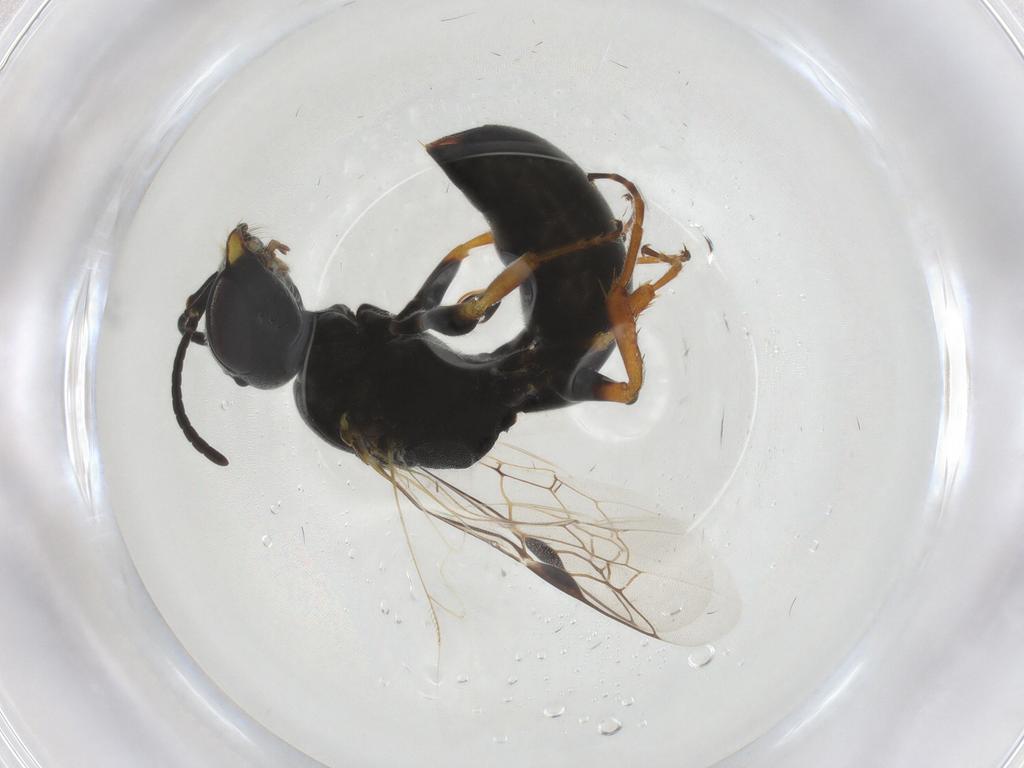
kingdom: Animalia
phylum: Arthropoda
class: Insecta
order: Hymenoptera
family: Pemphredonidae
